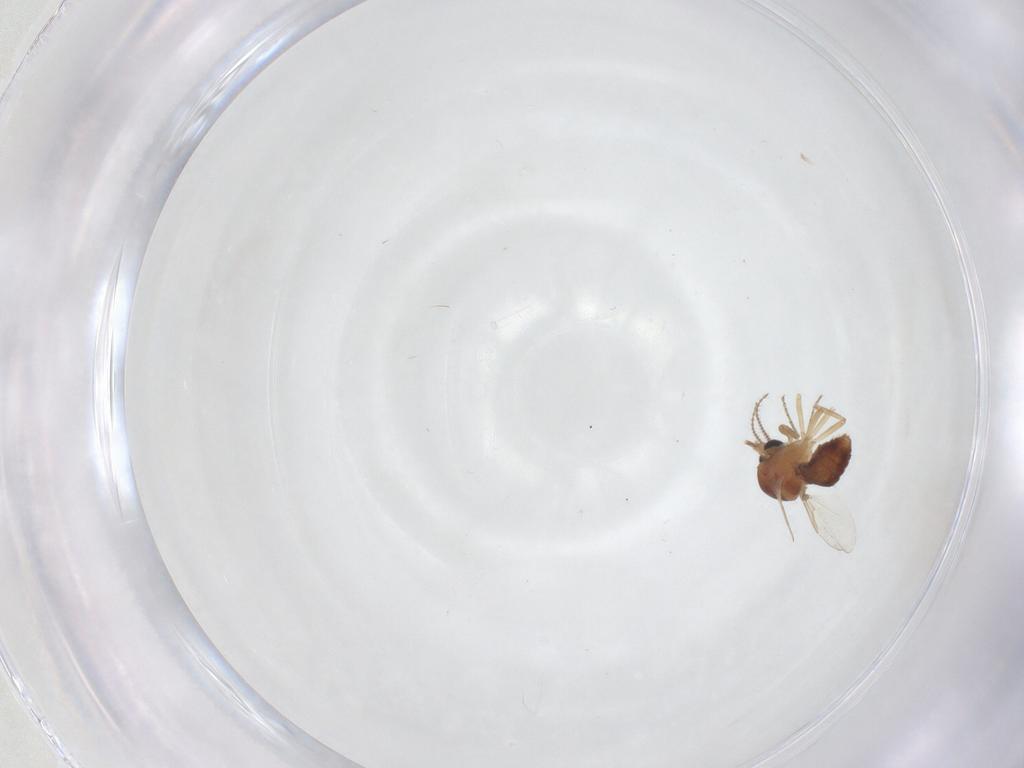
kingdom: Animalia
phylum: Arthropoda
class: Insecta
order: Diptera
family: Ceratopogonidae
